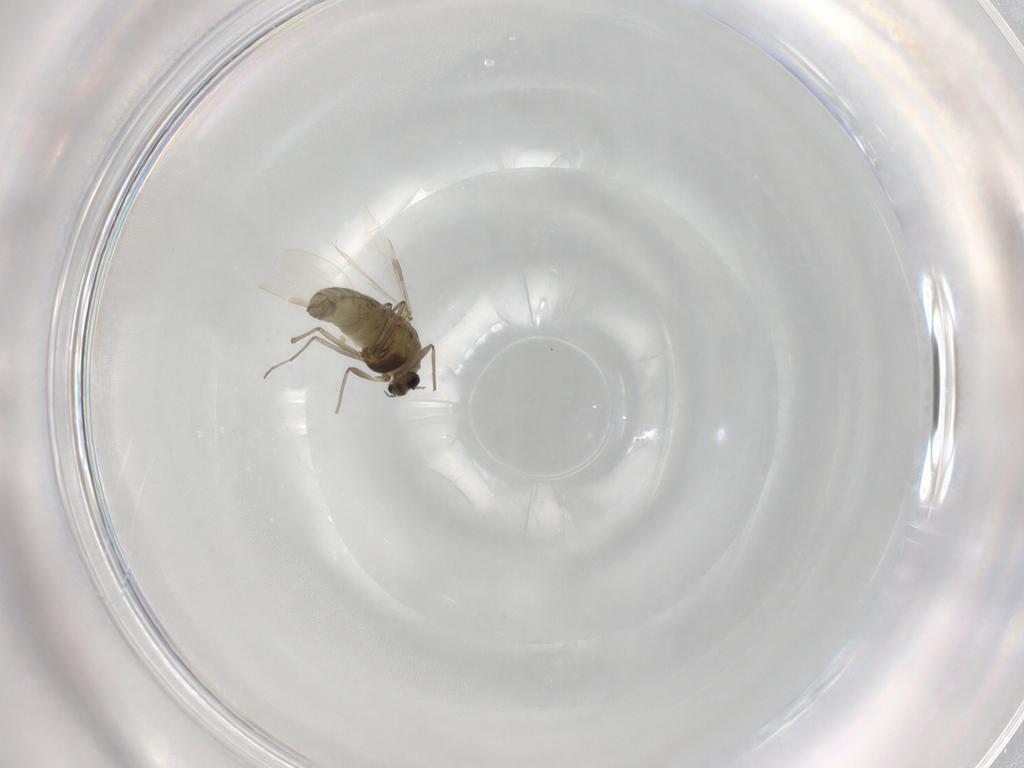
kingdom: Animalia
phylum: Arthropoda
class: Insecta
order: Diptera
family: Chironomidae
